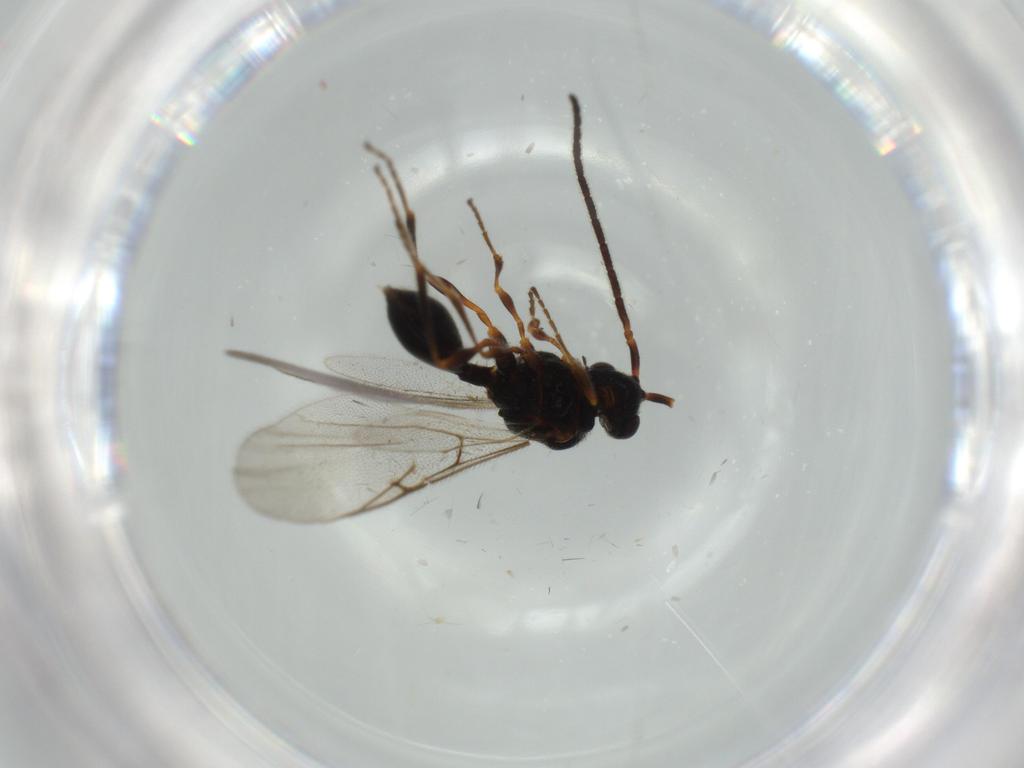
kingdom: Animalia
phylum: Arthropoda
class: Insecta
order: Hymenoptera
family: Diapriidae
